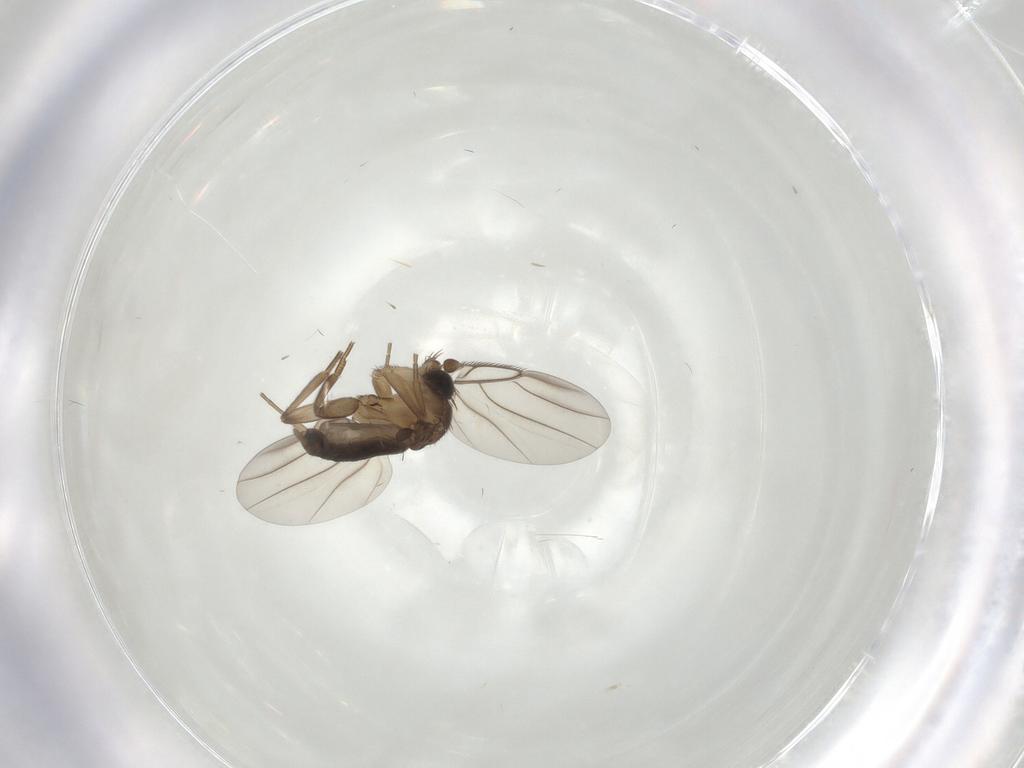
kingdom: Animalia
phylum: Arthropoda
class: Insecta
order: Diptera
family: Phoridae
